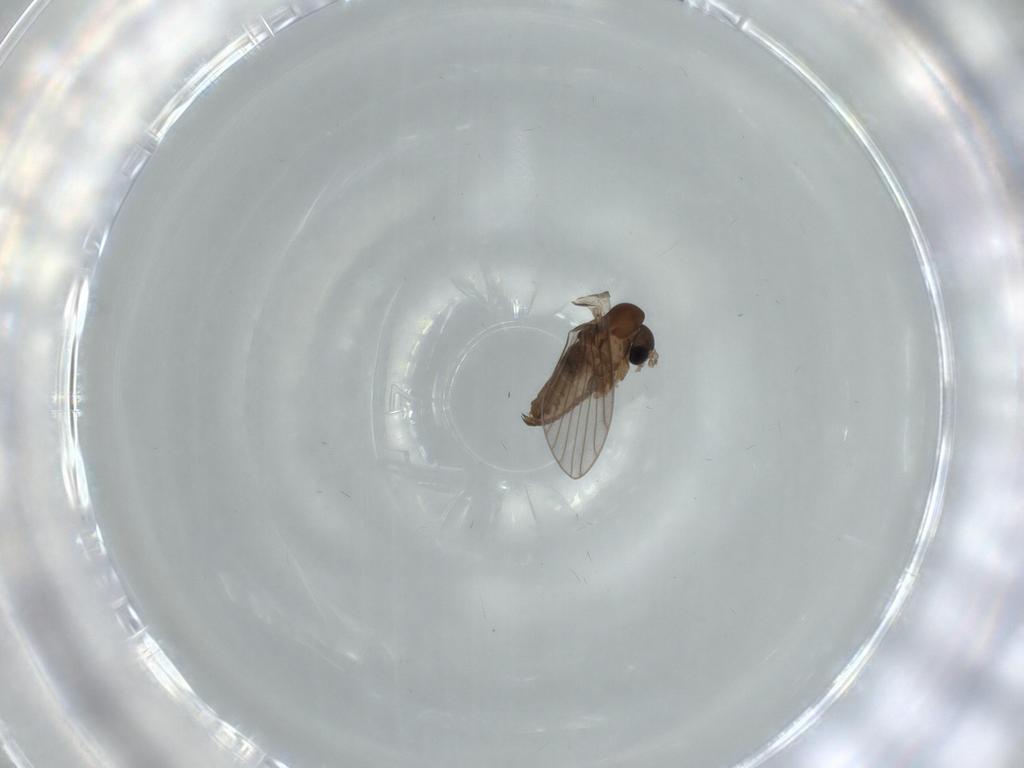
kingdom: Animalia
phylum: Arthropoda
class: Insecta
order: Diptera
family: Psychodidae
